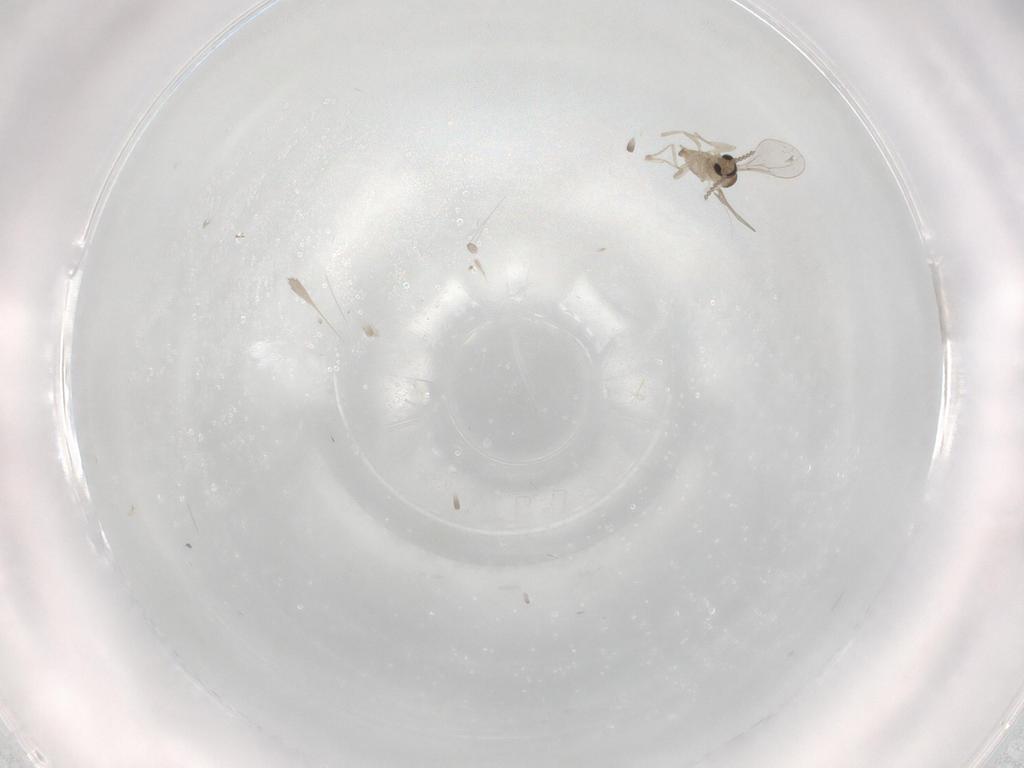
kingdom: Animalia
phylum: Arthropoda
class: Insecta
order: Diptera
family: Cecidomyiidae
